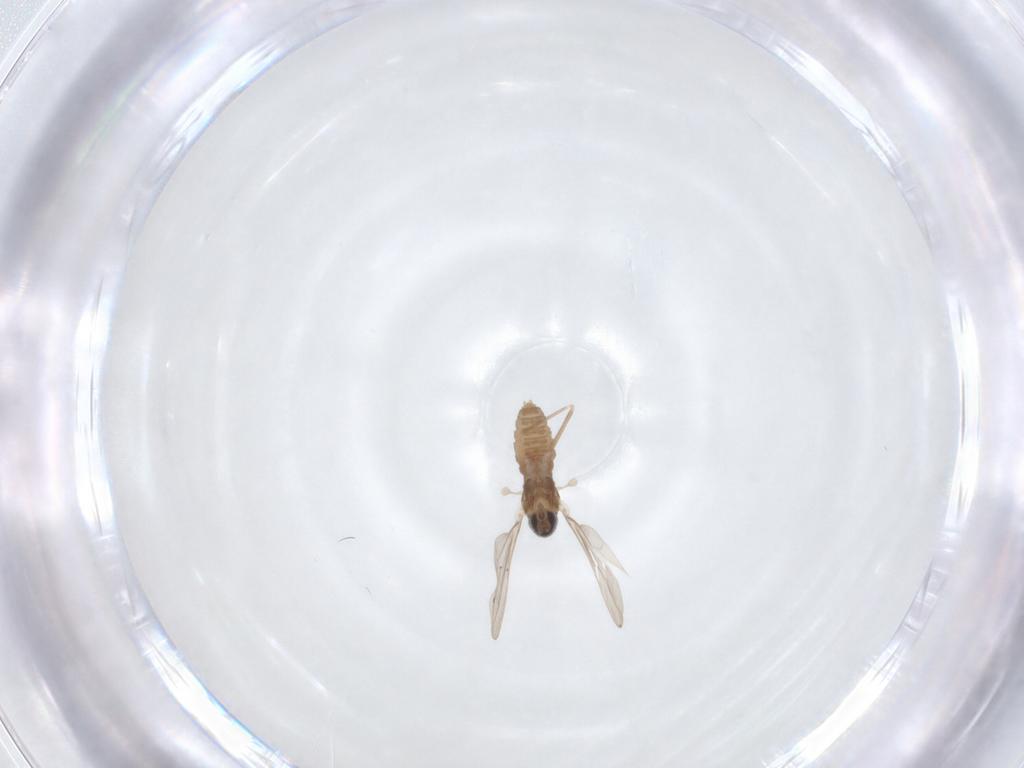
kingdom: Animalia
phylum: Arthropoda
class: Insecta
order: Diptera
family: Cecidomyiidae
